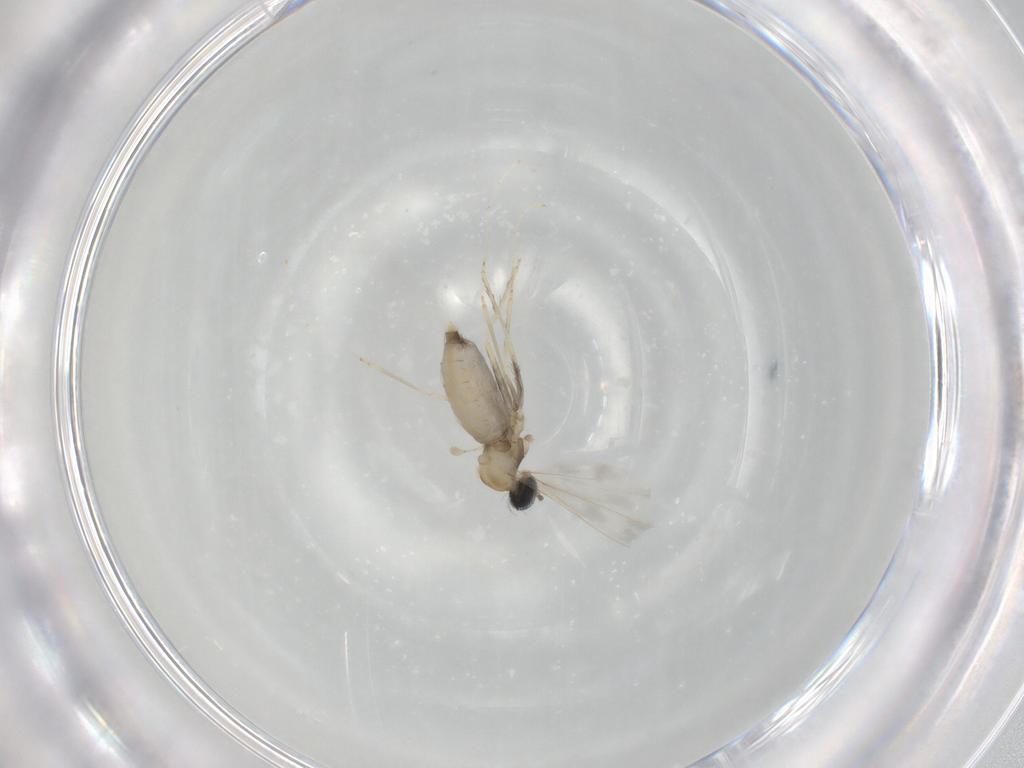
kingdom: Animalia
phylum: Arthropoda
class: Insecta
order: Diptera
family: Cecidomyiidae
